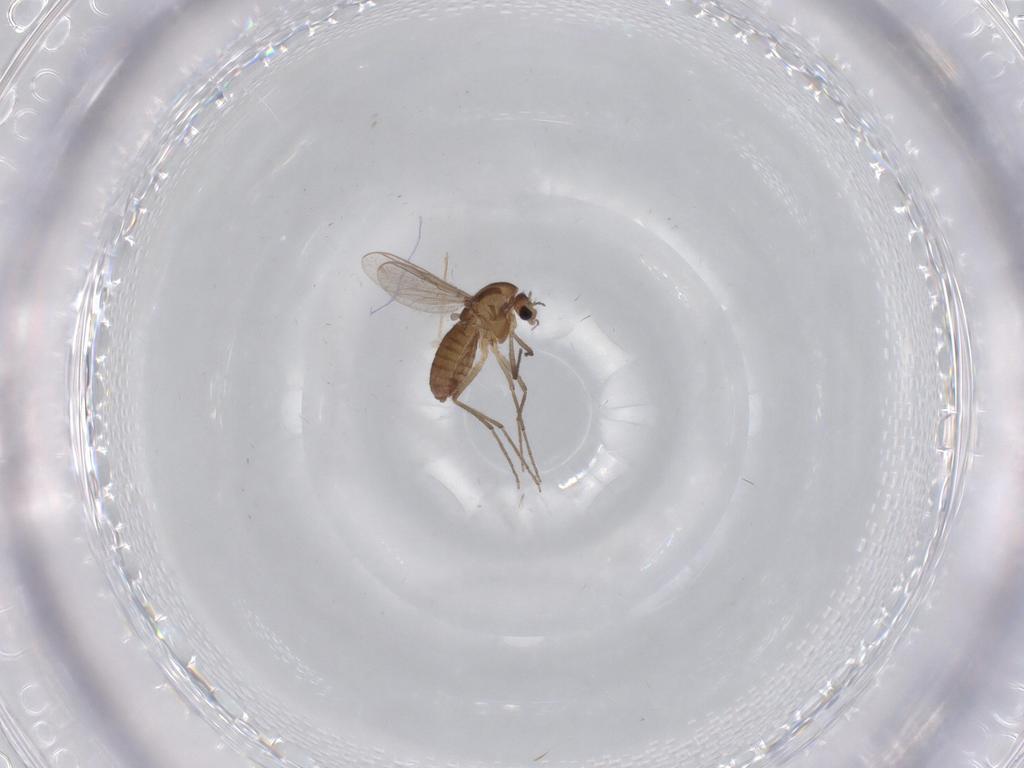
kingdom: Animalia
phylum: Arthropoda
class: Insecta
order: Diptera
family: Chironomidae
